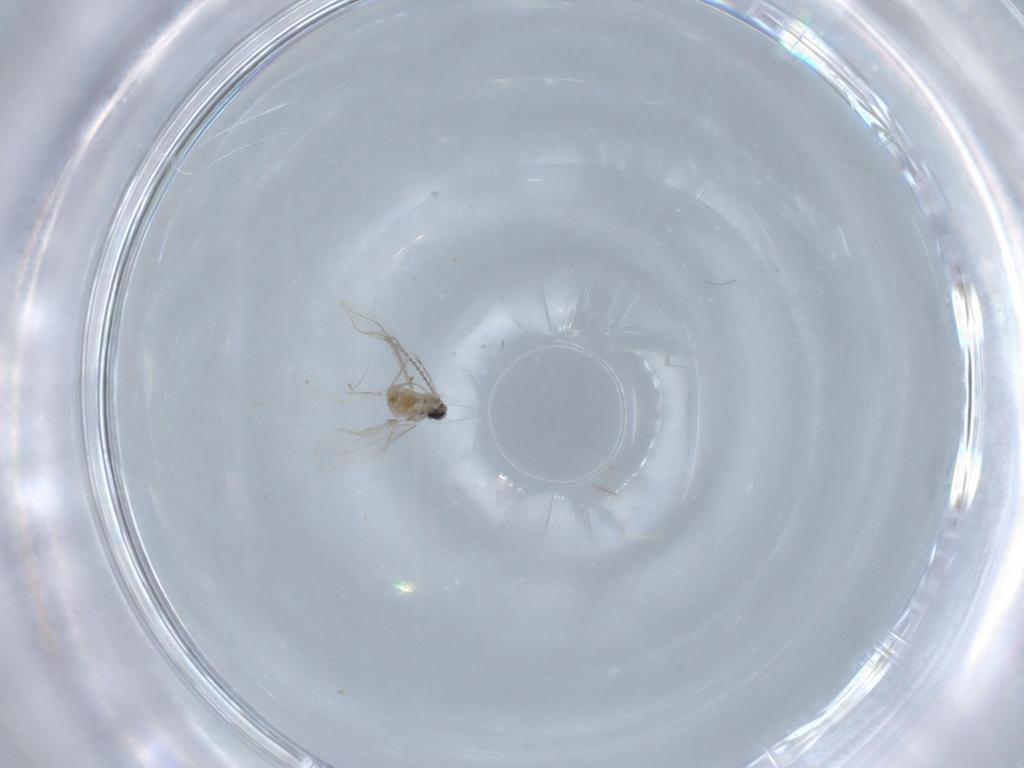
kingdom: Animalia
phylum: Arthropoda
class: Insecta
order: Diptera
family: Cecidomyiidae
